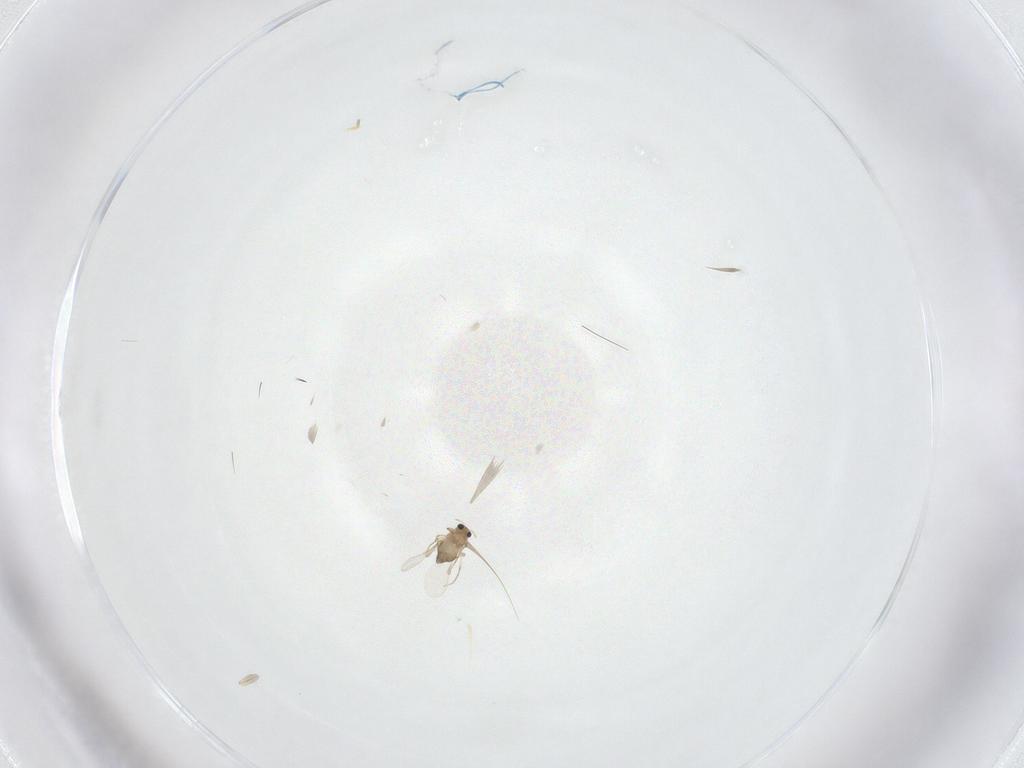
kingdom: Animalia
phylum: Arthropoda
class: Insecta
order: Diptera
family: Chironomidae
